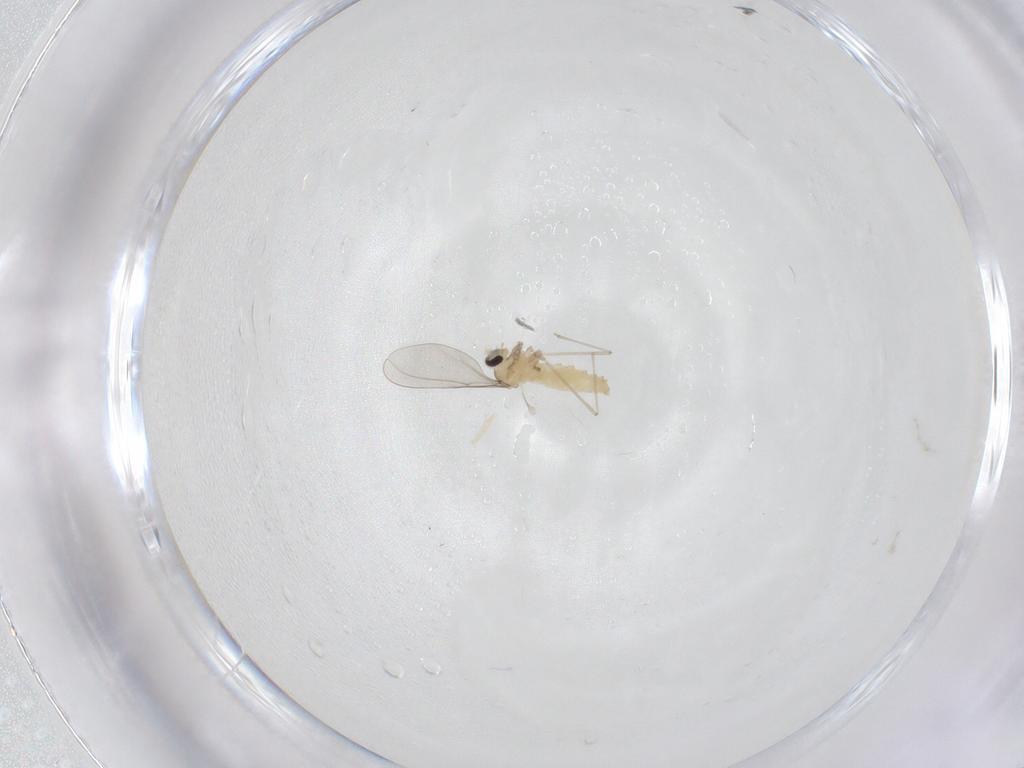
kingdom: Animalia
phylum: Arthropoda
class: Insecta
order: Diptera
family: Cecidomyiidae
